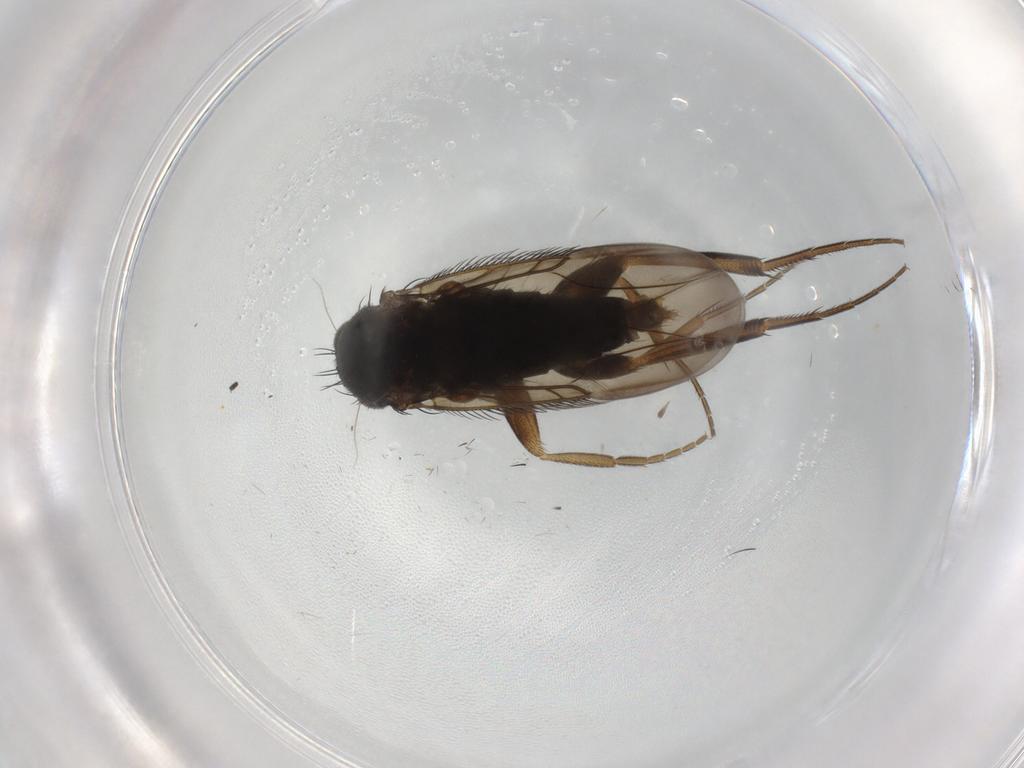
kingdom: Animalia
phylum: Arthropoda
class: Insecta
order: Diptera
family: Phoridae
